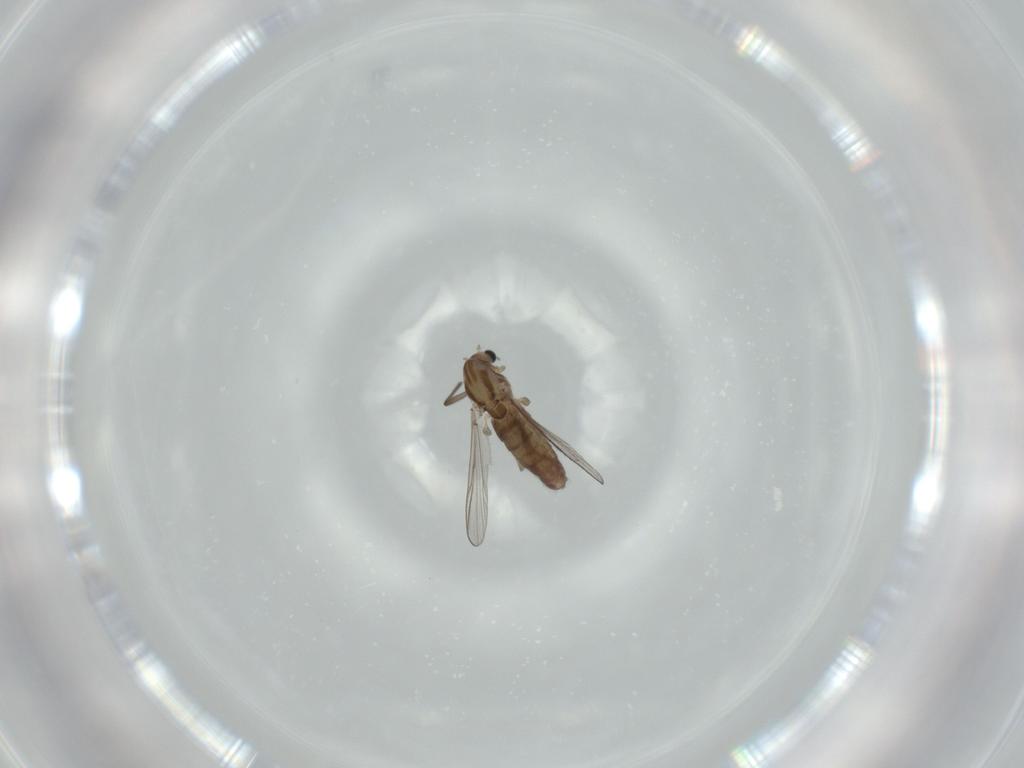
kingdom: Animalia
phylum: Arthropoda
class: Insecta
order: Diptera
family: Chironomidae
